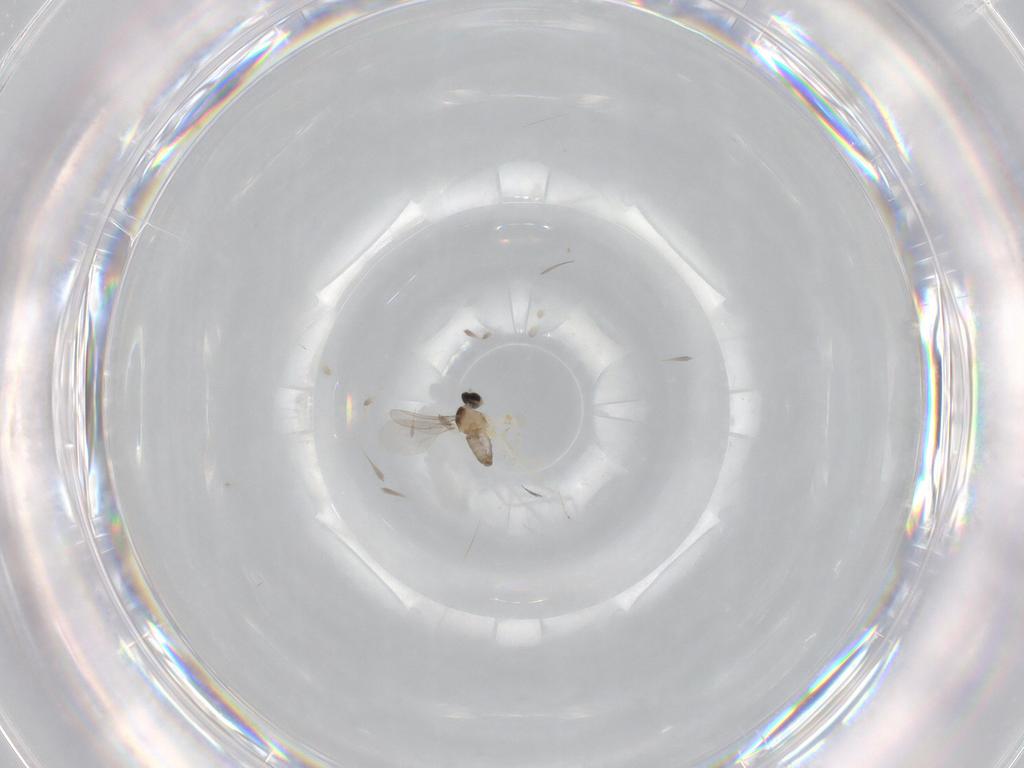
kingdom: Animalia
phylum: Arthropoda
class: Insecta
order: Diptera
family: Cecidomyiidae
